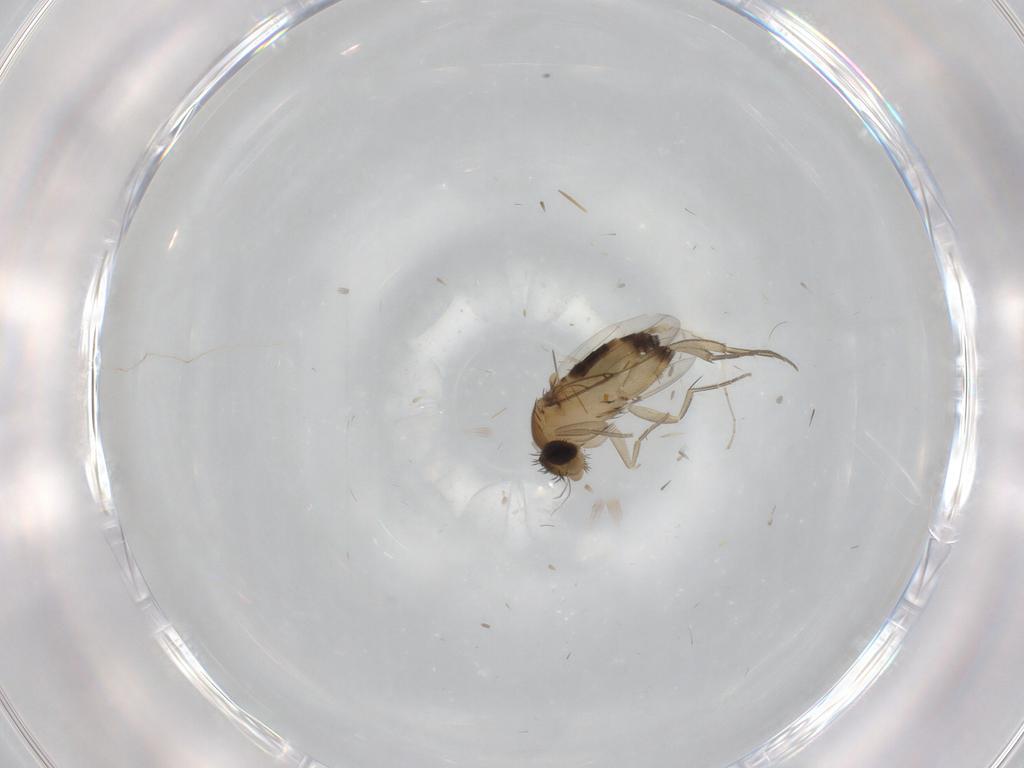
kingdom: Animalia
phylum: Arthropoda
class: Insecta
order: Diptera
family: Phoridae
